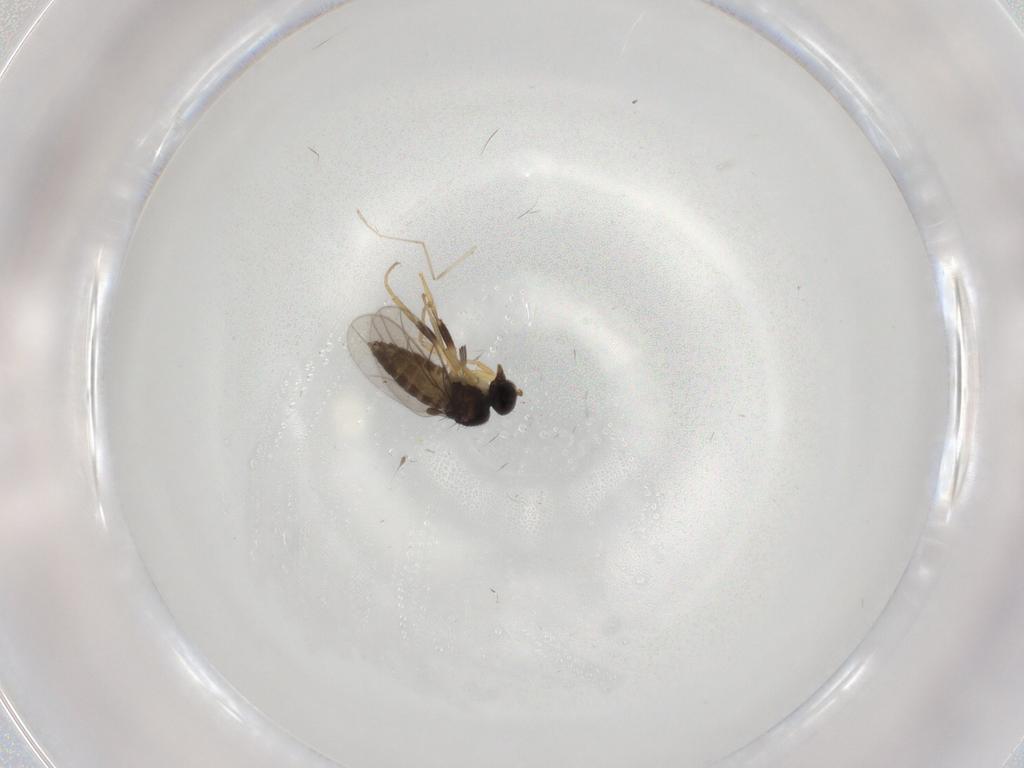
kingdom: Animalia
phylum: Arthropoda
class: Insecta
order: Diptera
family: Hybotidae
